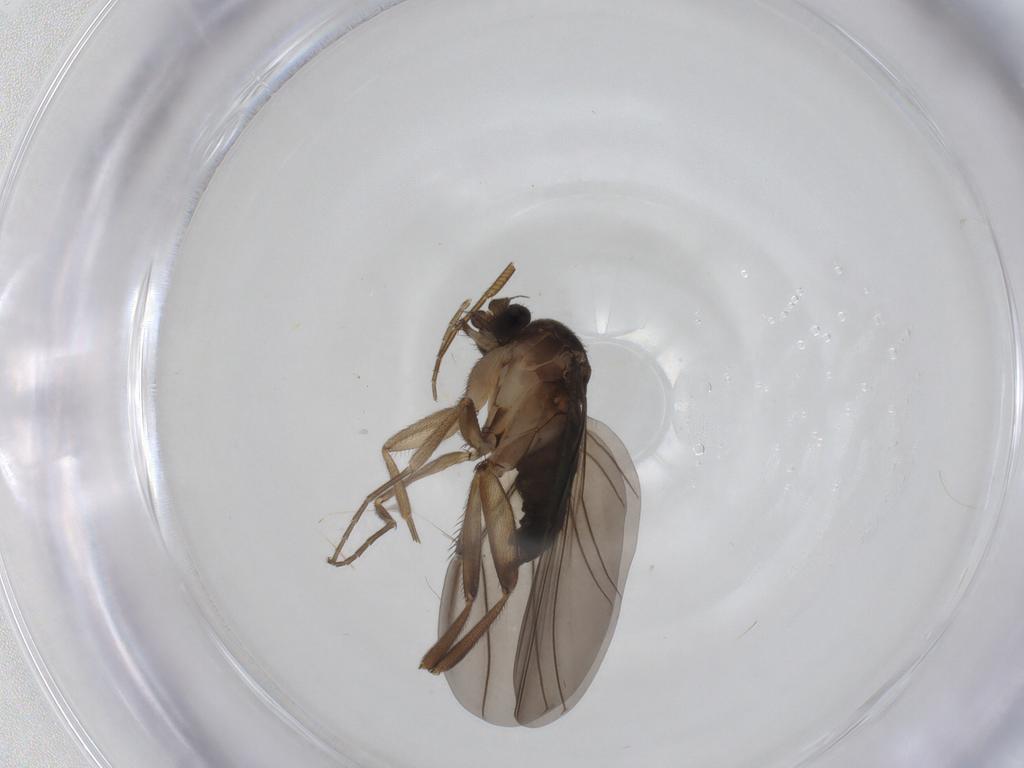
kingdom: Animalia
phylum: Arthropoda
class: Insecta
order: Diptera
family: Phoridae
